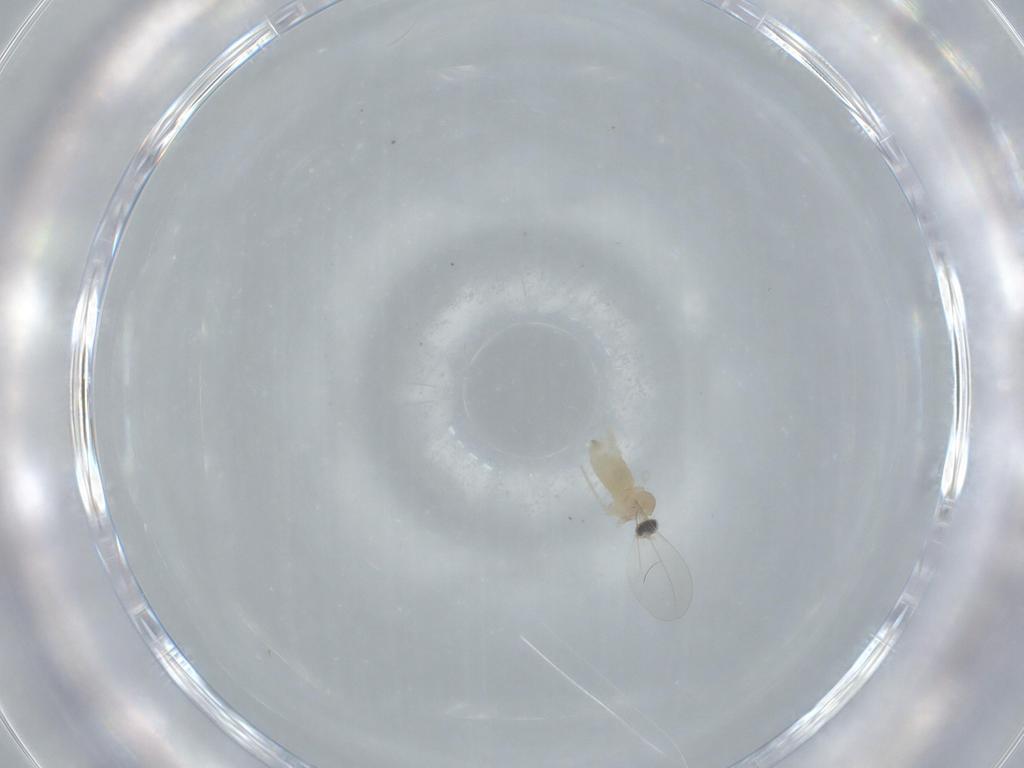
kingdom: Animalia
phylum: Arthropoda
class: Insecta
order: Diptera
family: Cecidomyiidae
